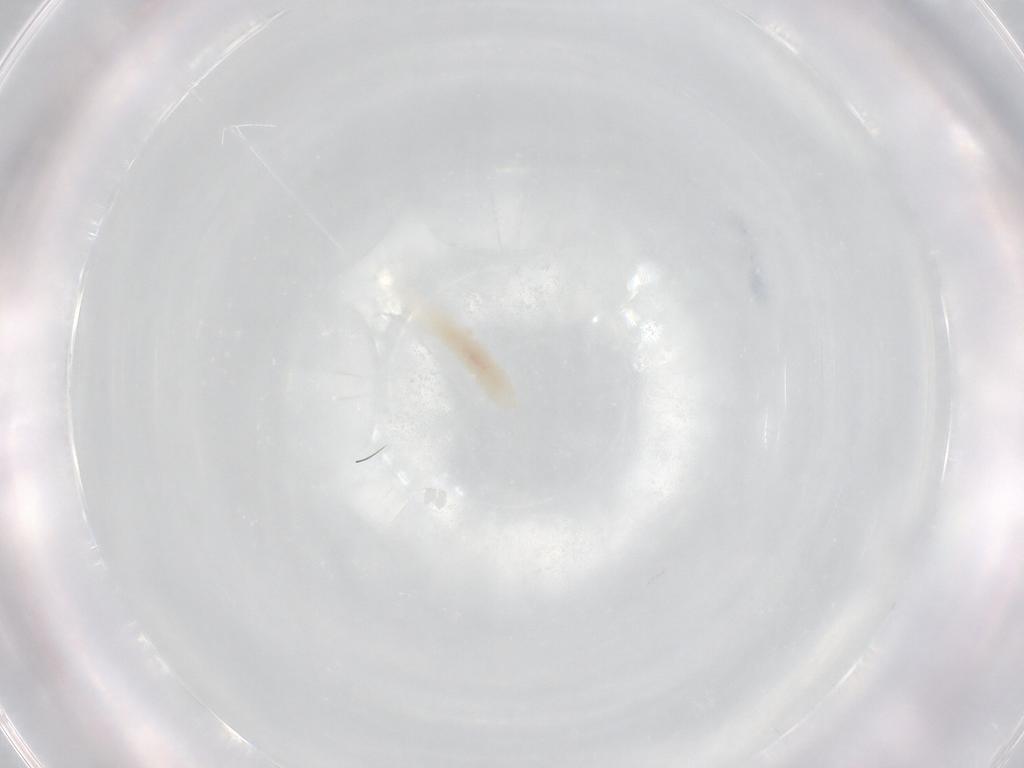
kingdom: Animalia
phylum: Arthropoda
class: Collembola
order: Poduromorpha
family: Onychiuridae
